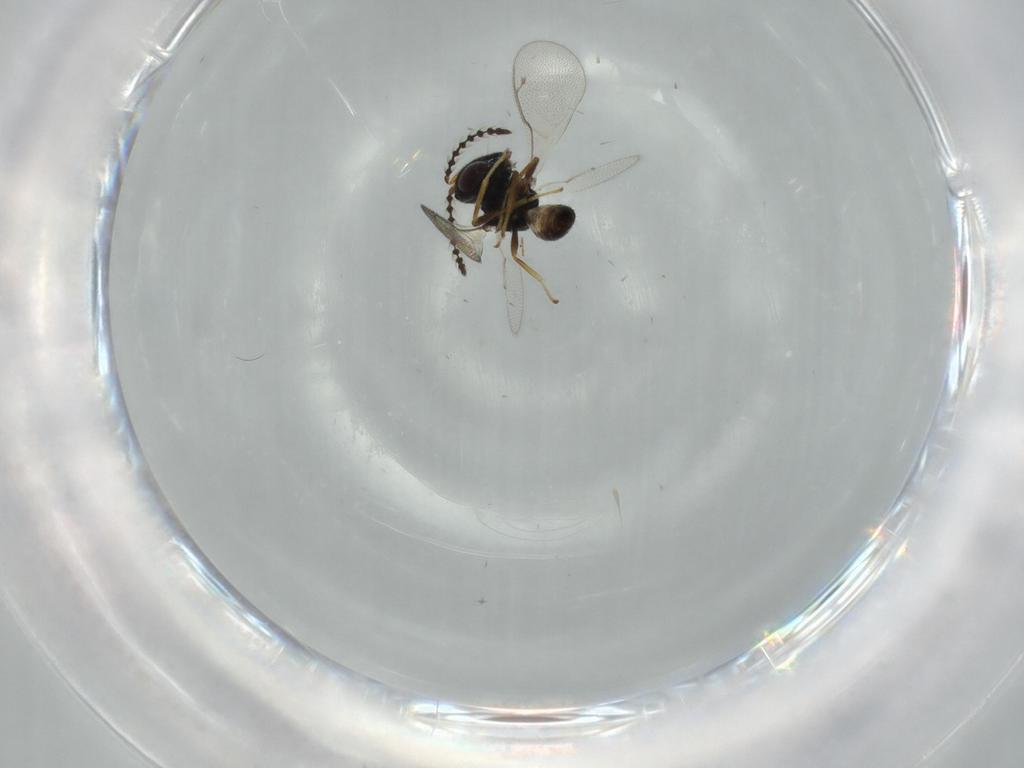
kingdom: Animalia
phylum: Arthropoda
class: Insecta
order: Hymenoptera
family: Pteromalidae
